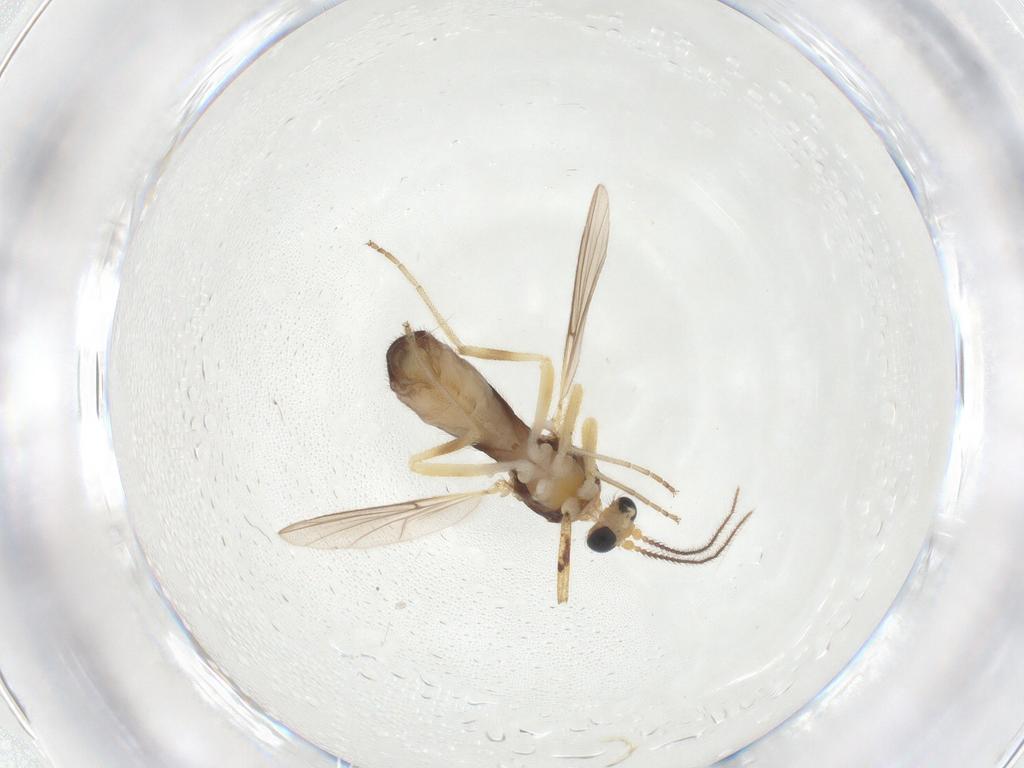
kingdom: Animalia
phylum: Arthropoda
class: Insecta
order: Diptera
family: Ceratopogonidae
